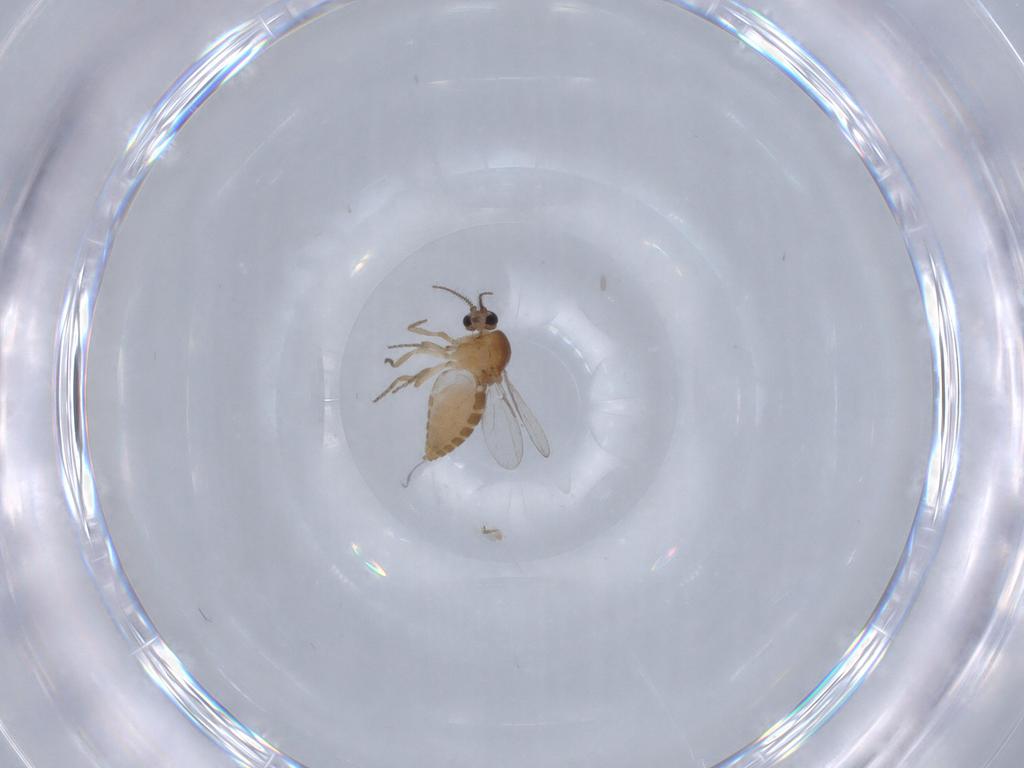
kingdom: Animalia
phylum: Arthropoda
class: Insecta
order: Diptera
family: Ceratopogonidae
